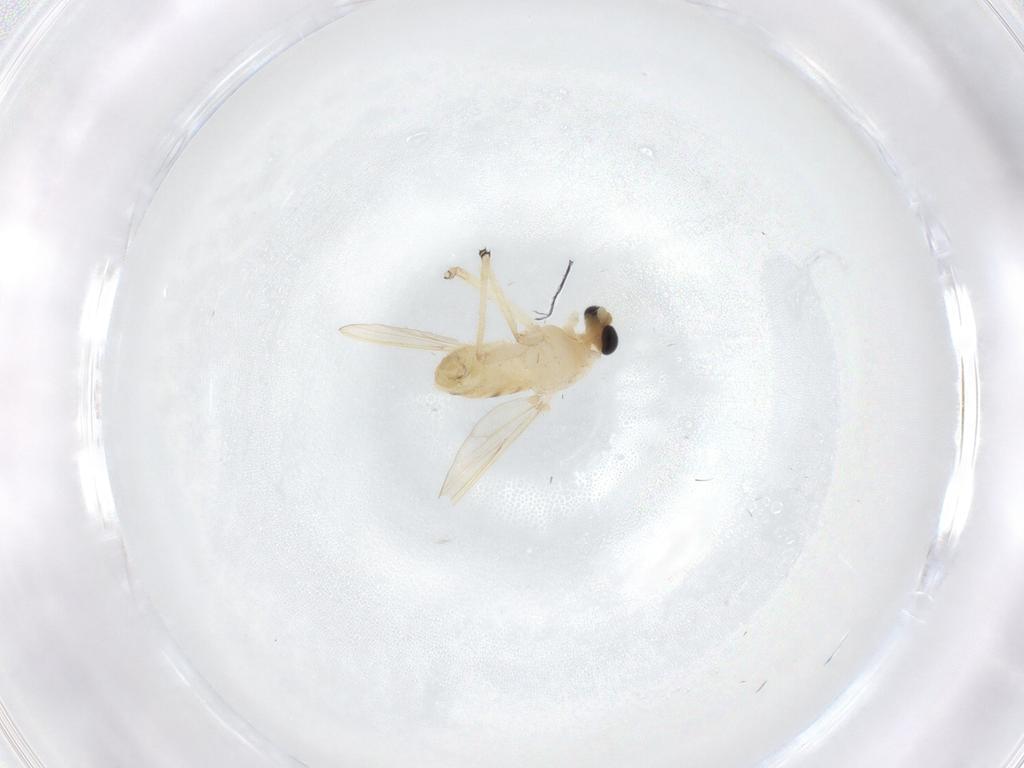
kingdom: Animalia
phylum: Arthropoda
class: Insecta
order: Diptera
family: Chironomidae
